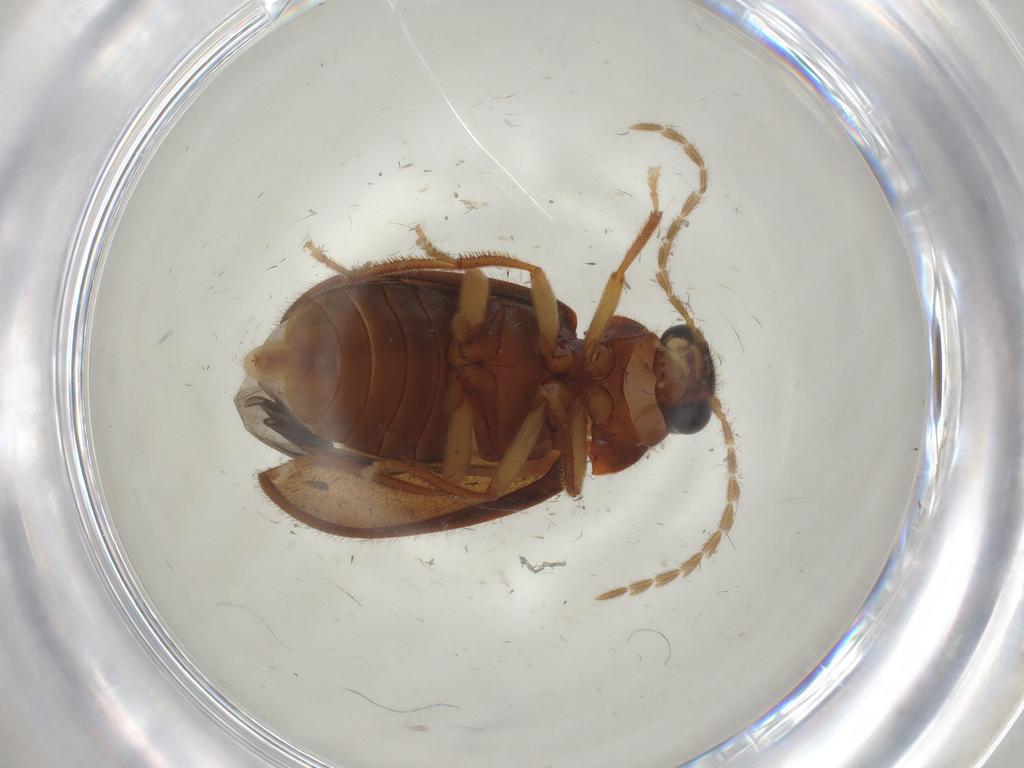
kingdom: Animalia
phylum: Arthropoda
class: Insecta
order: Coleoptera
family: Ptilodactylidae
